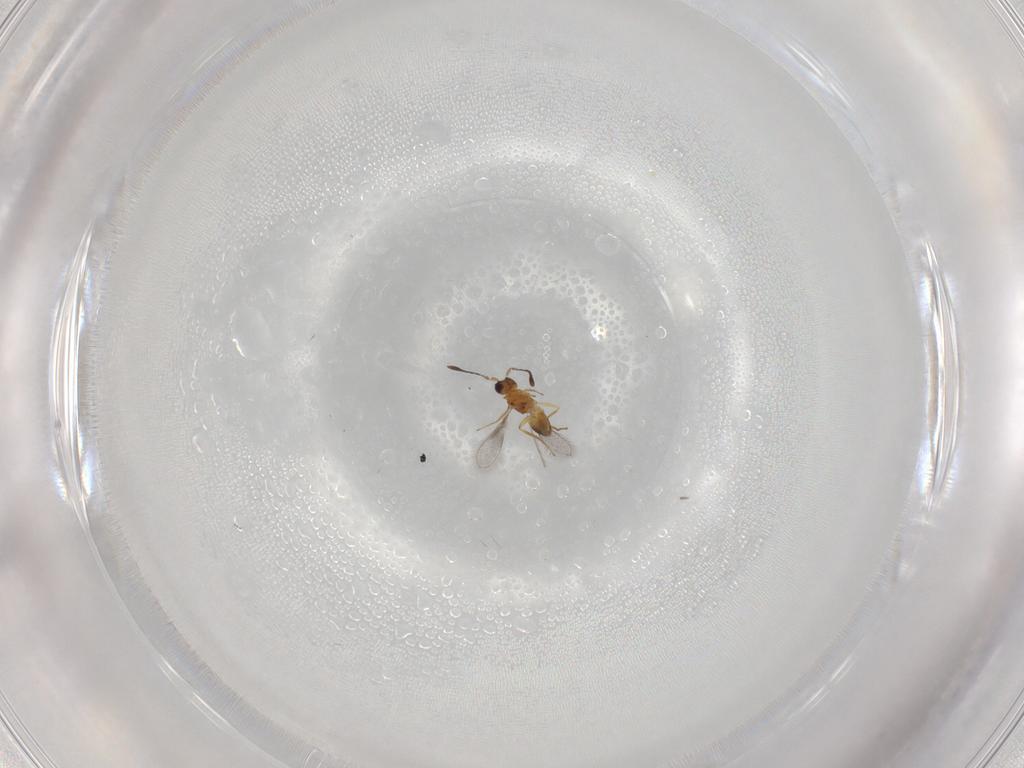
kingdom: Animalia
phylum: Arthropoda
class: Insecta
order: Hymenoptera
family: Mymaridae
